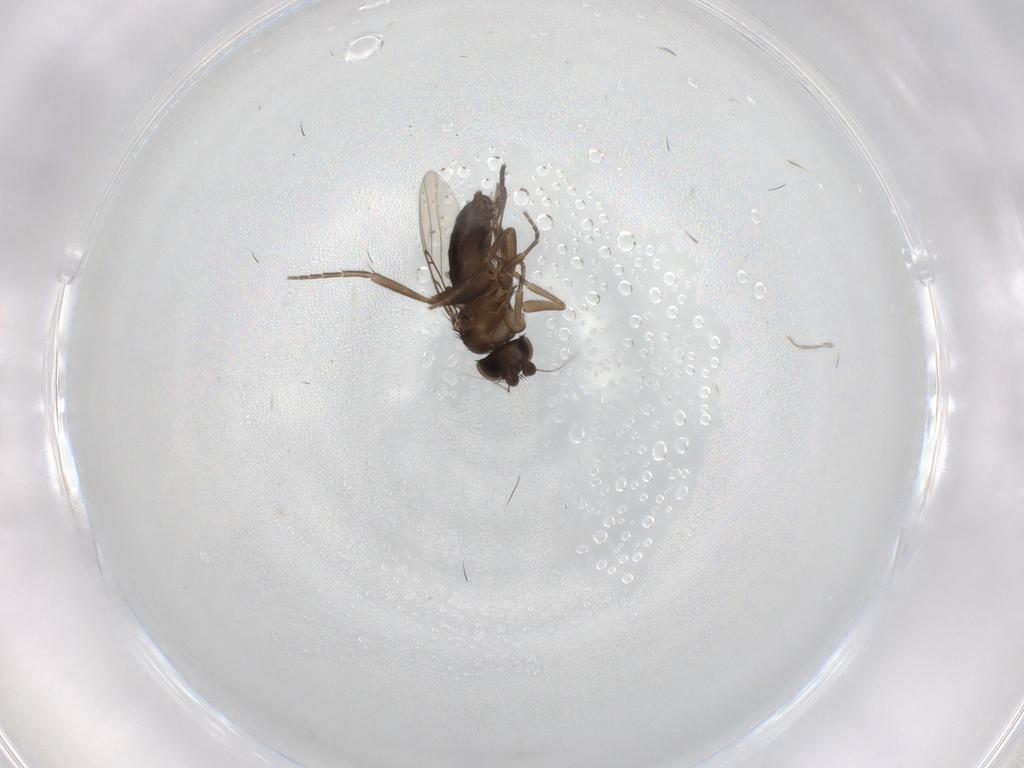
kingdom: Animalia
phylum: Arthropoda
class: Insecta
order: Diptera
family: Phoridae
